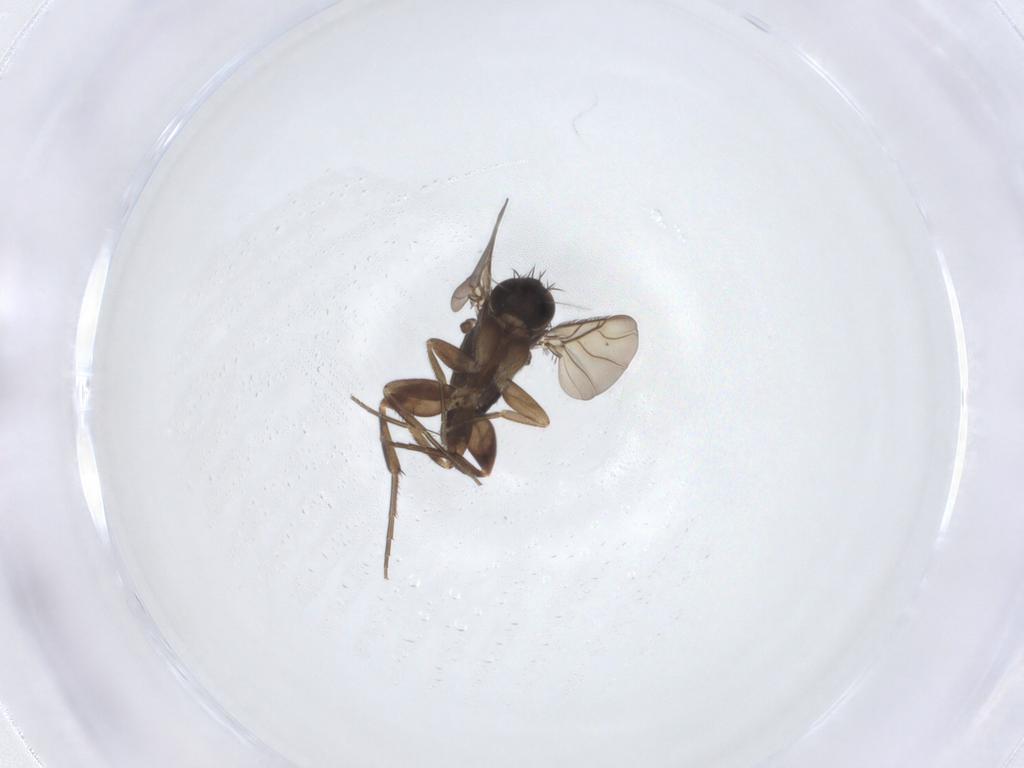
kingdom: Animalia
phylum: Arthropoda
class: Insecta
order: Diptera
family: Phoridae
